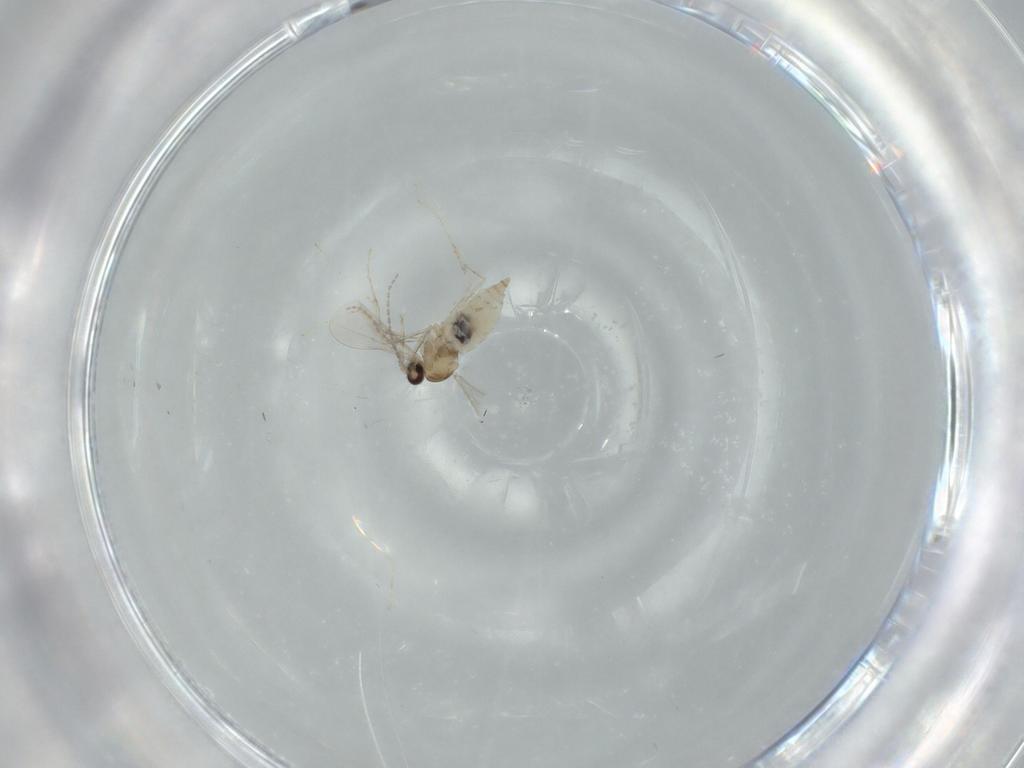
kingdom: Animalia
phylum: Arthropoda
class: Insecta
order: Diptera
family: Cecidomyiidae
